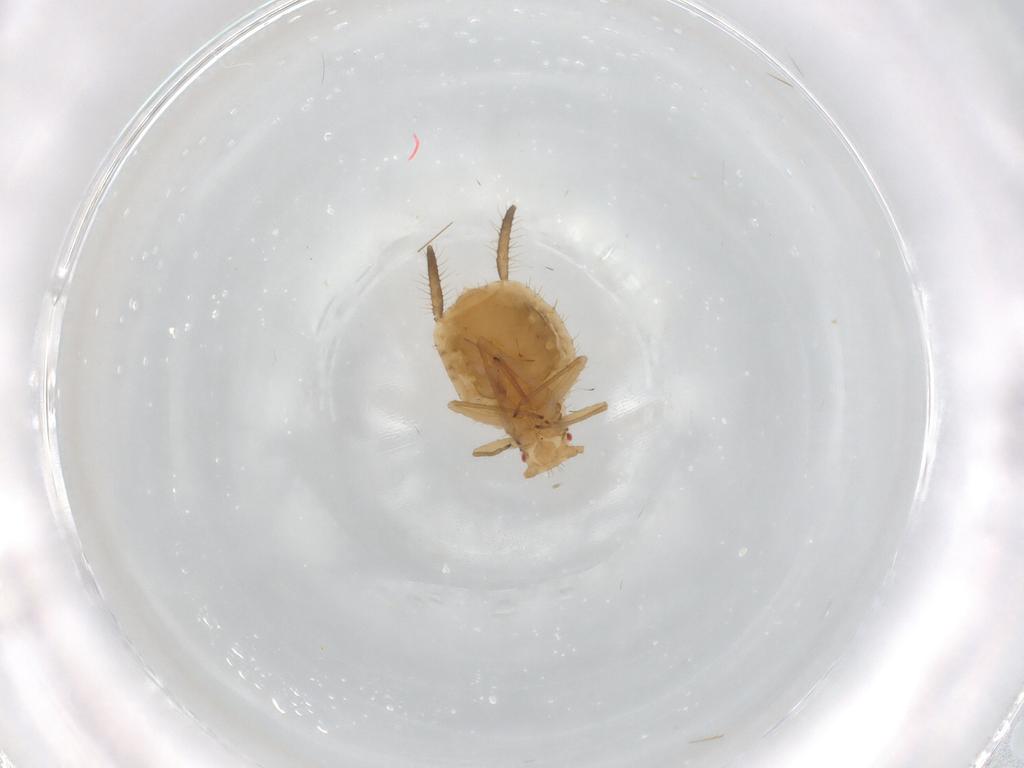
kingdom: Animalia
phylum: Arthropoda
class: Insecta
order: Hemiptera
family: Aphididae
